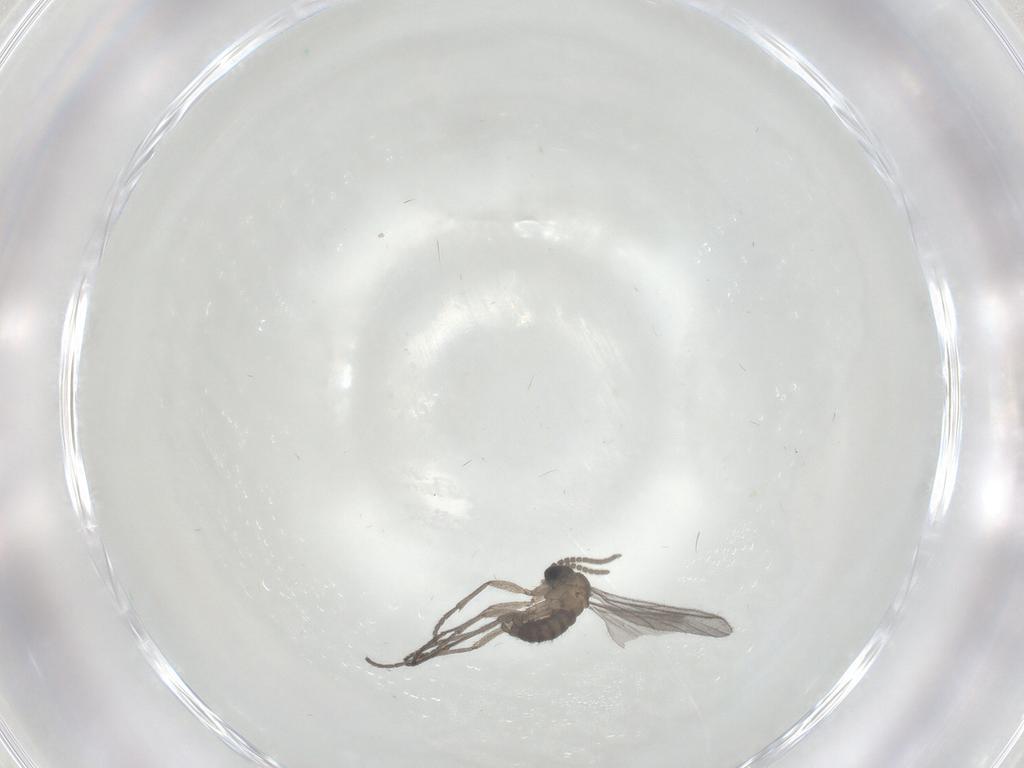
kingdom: Animalia
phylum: Arthropoda
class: Insecta
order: Diptera
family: Sciaridae
